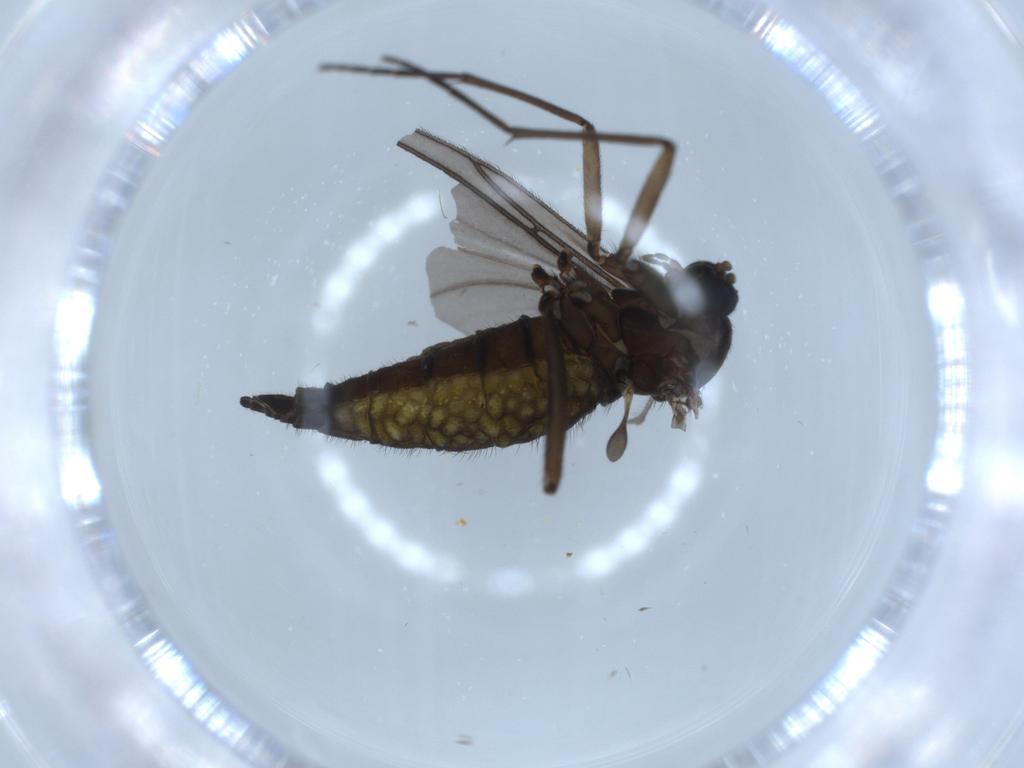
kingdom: Animalia
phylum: Arthropoda
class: Insecta
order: Diptera
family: Sciaridae
